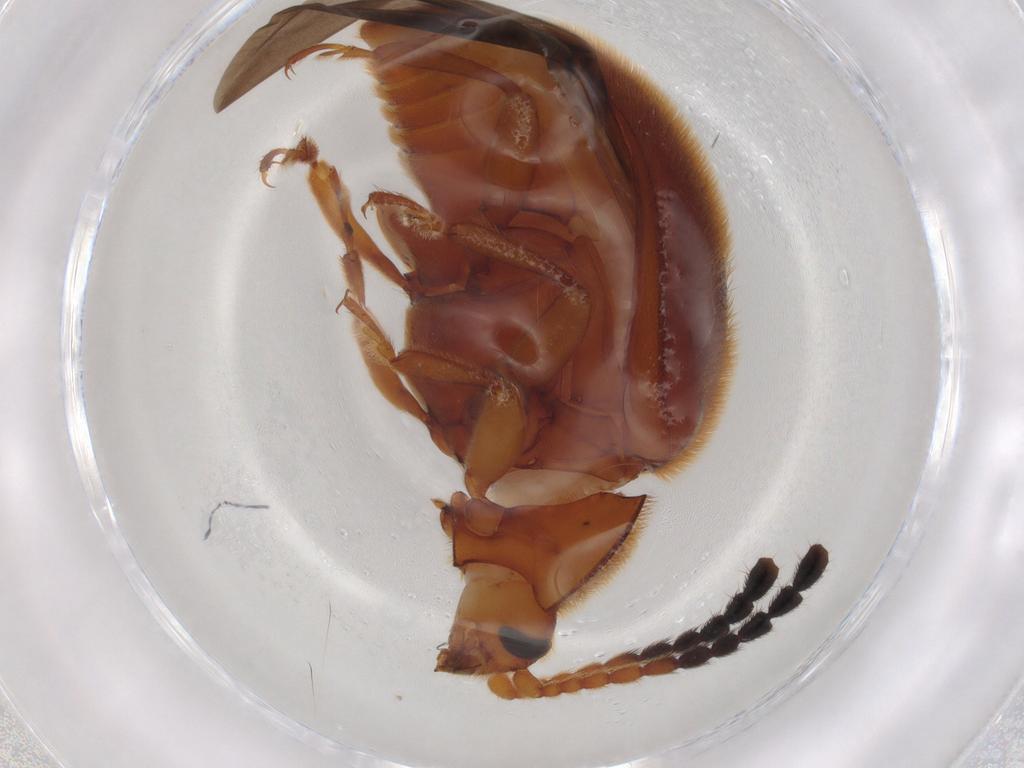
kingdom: Animalia
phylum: Arthropoda
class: Insecta
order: Coleoptera
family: Endomychidae
